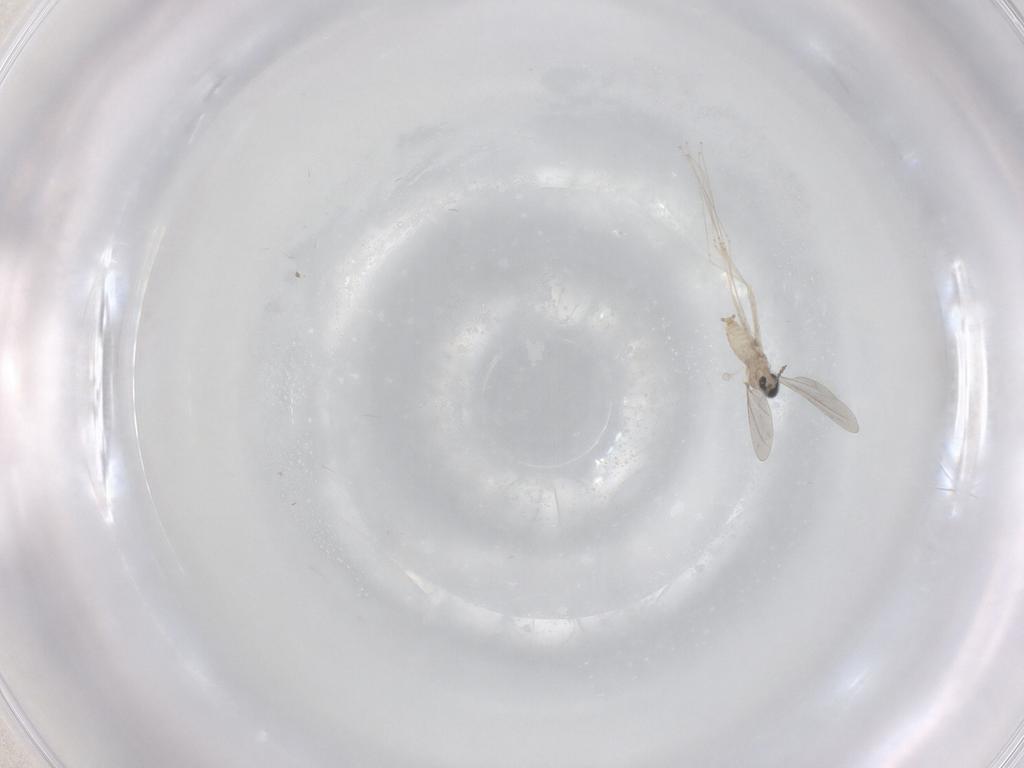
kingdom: Animalia
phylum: Arthropoda
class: Insecta
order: Diptera
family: Cecidomyiidae
